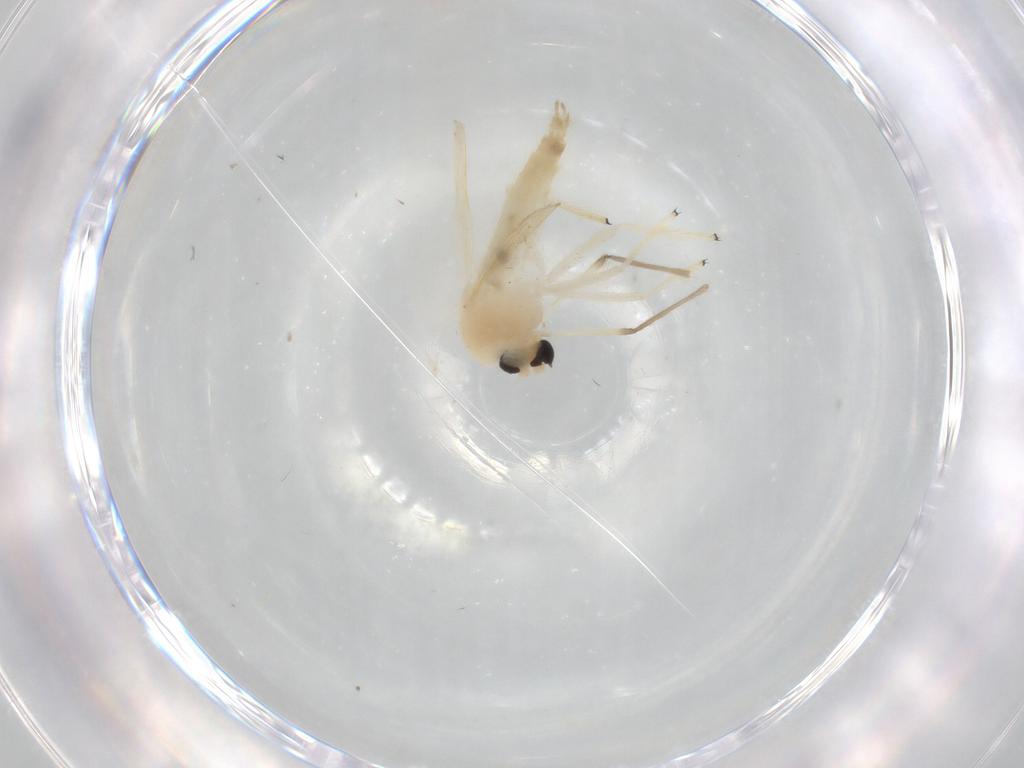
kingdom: Animalia
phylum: Arthropoda
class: Insecta
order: Diptera
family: Chironomidae
